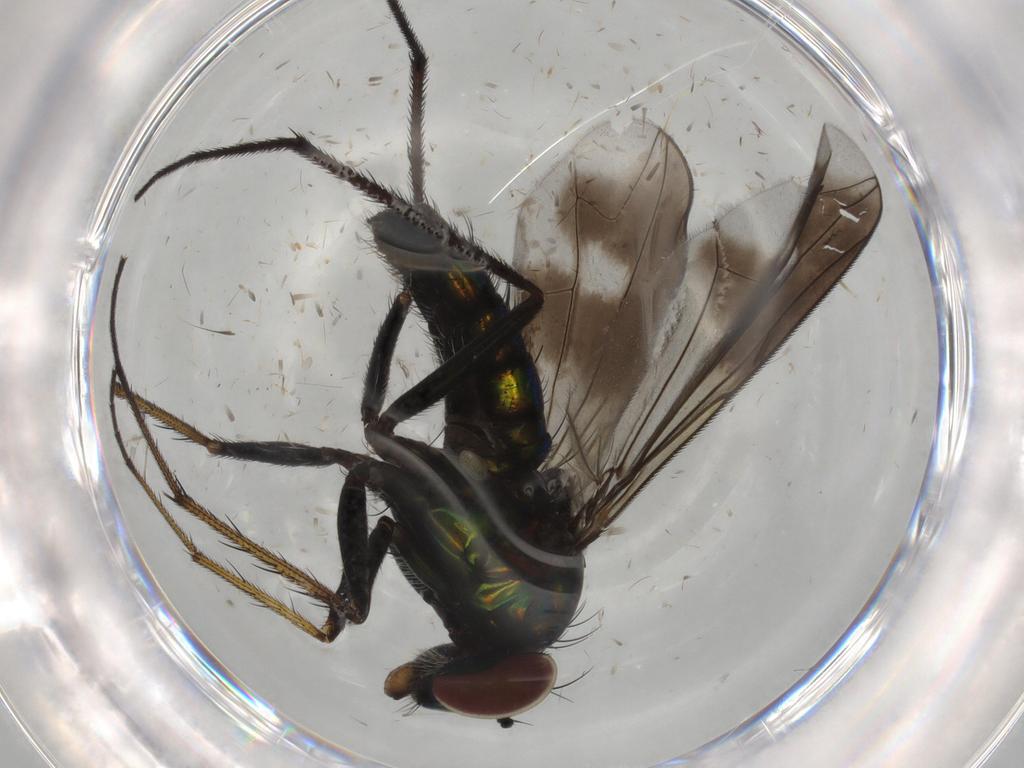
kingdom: Animalia
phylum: Arthropoda
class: Insecta
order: Diptera
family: Dolichopodidae
